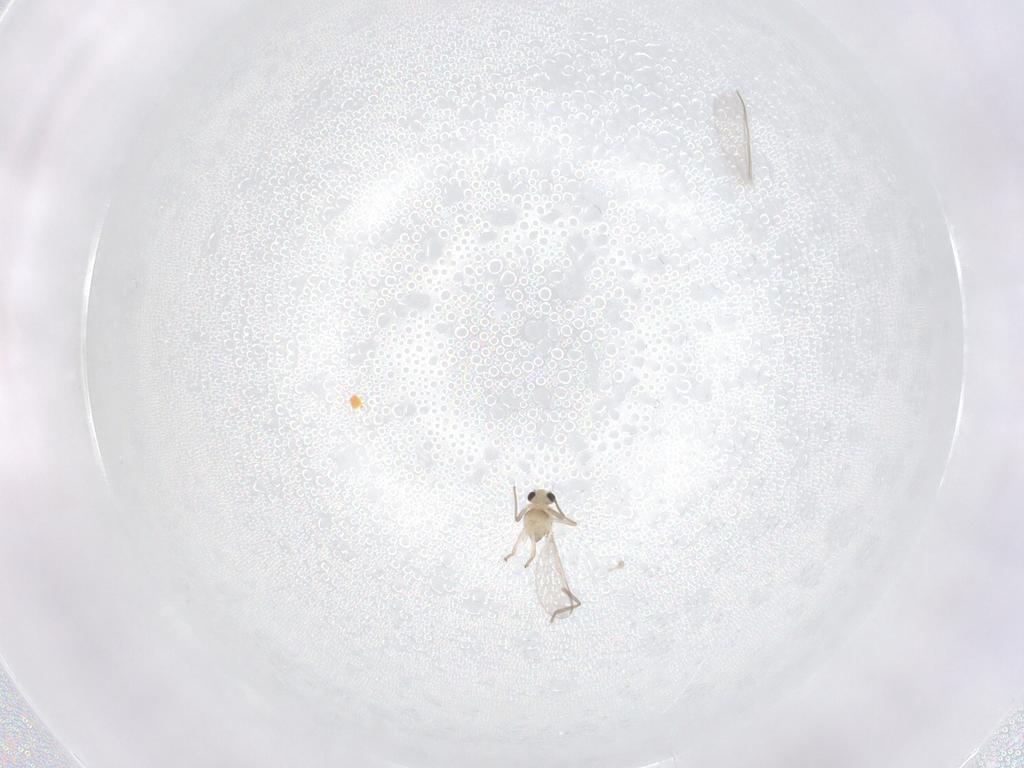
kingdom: Animalia
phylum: Arthropoda
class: Insecta
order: Diptera
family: Chironomidae
